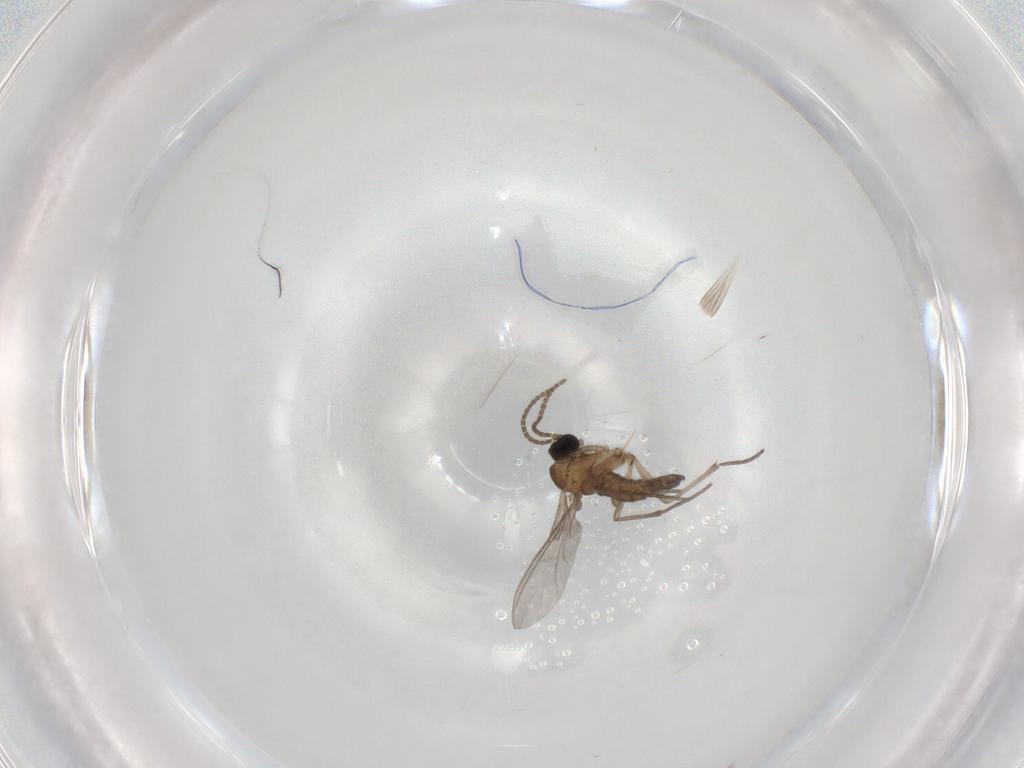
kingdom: Animalia
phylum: Arthropoda
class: Insecta
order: Diptera
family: Sciaridae
